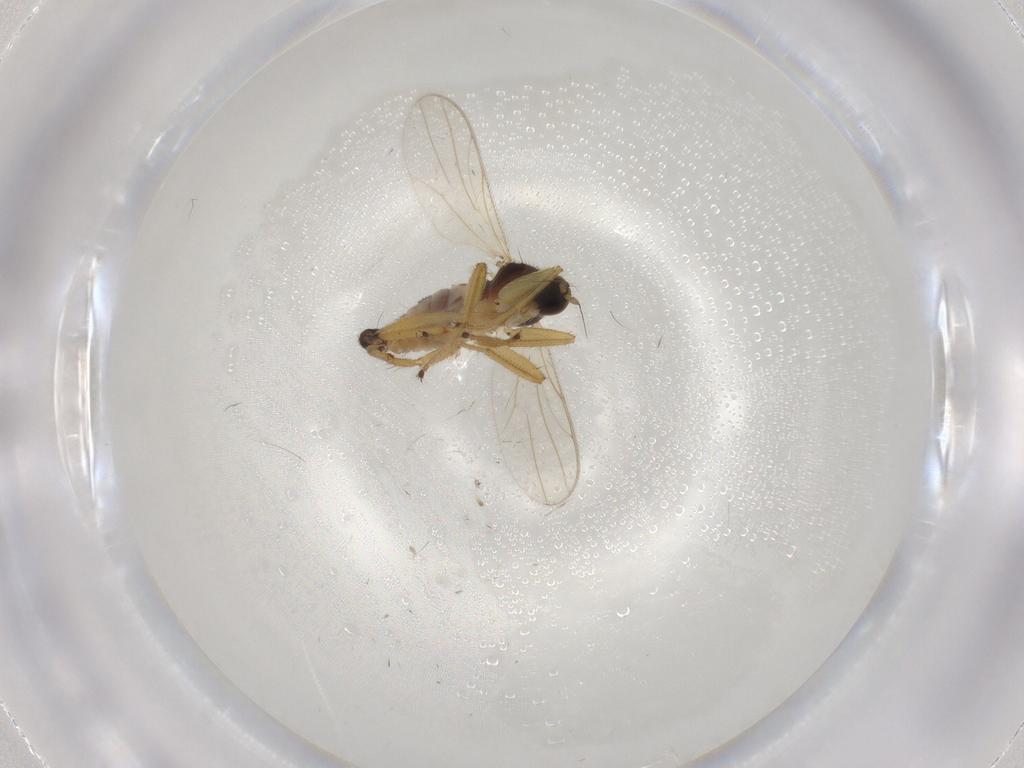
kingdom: Animalia
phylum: Arthropoda
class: Insecta
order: Diptera
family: Hybotidae
